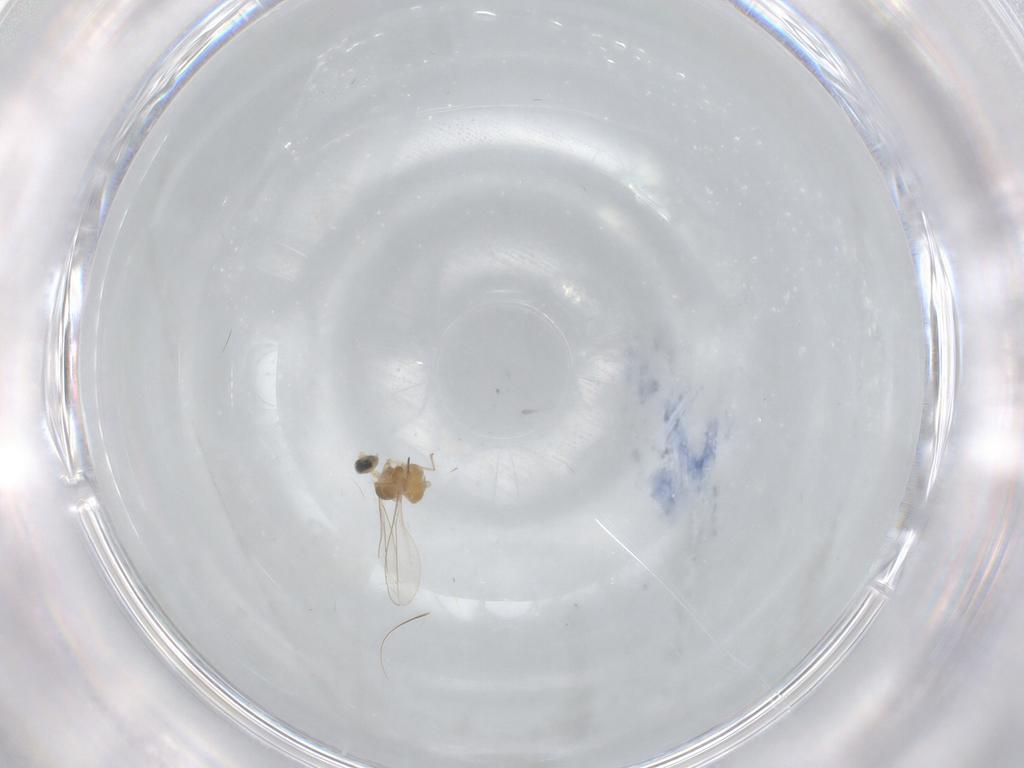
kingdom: Animalia
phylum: Arthropoda
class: Insecta
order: Diptera
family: Cecidomyiidae
